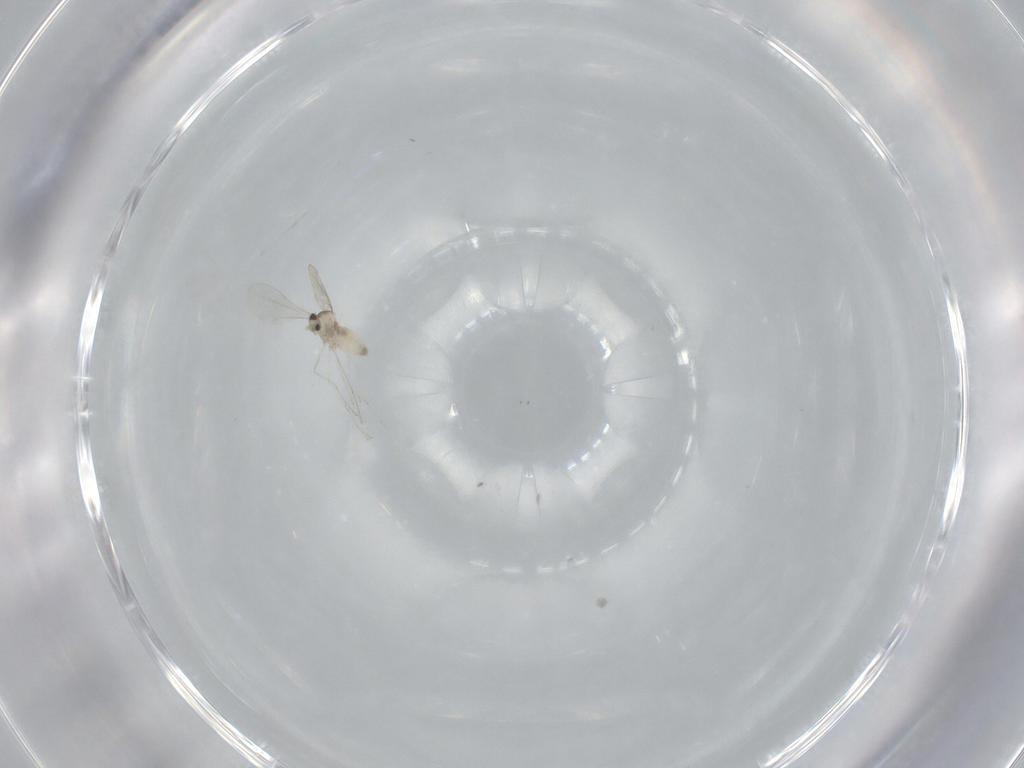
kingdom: Animalia
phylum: Arthropoda
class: Insecta
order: Diptera
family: Cecidomyiidae
